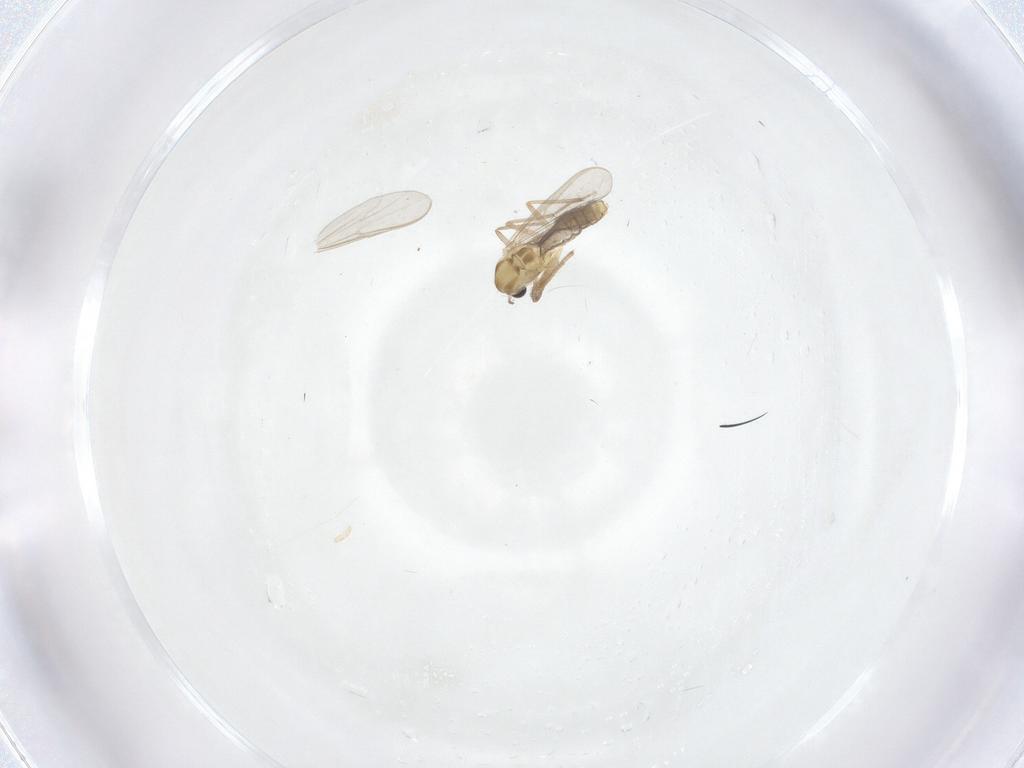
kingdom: Animalia
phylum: Arthropoda
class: Insecta
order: Diptera
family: Chironomidae
